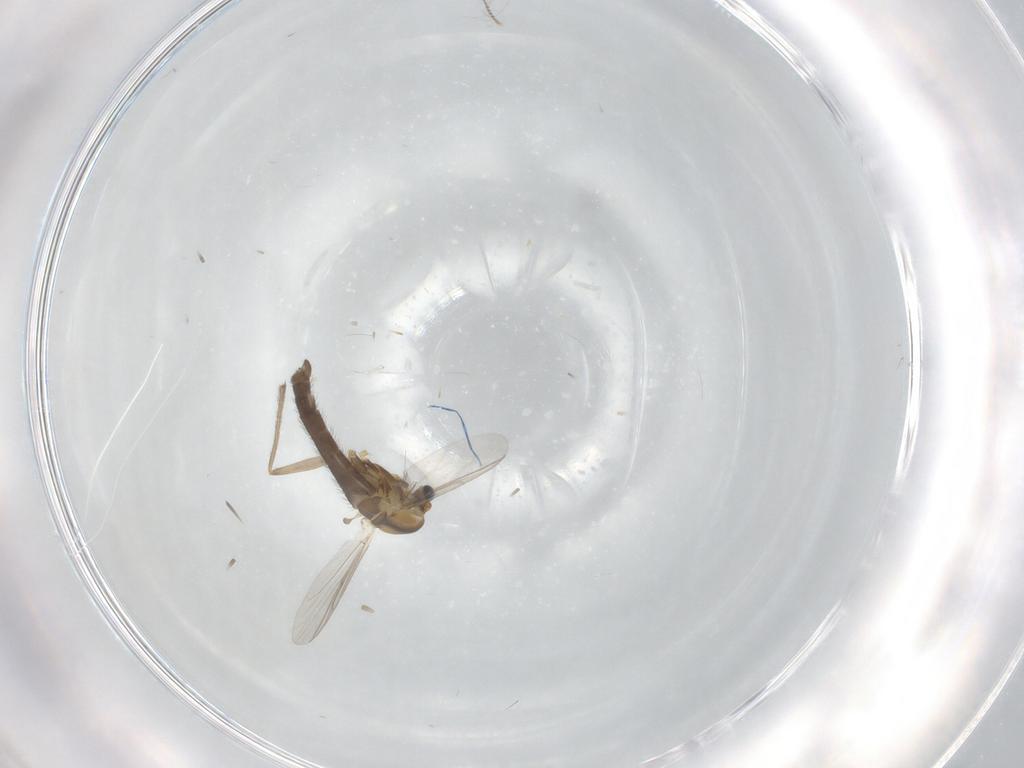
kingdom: Animalia
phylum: Arthropoda
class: Insecta
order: Diptera
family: Chironomidae
